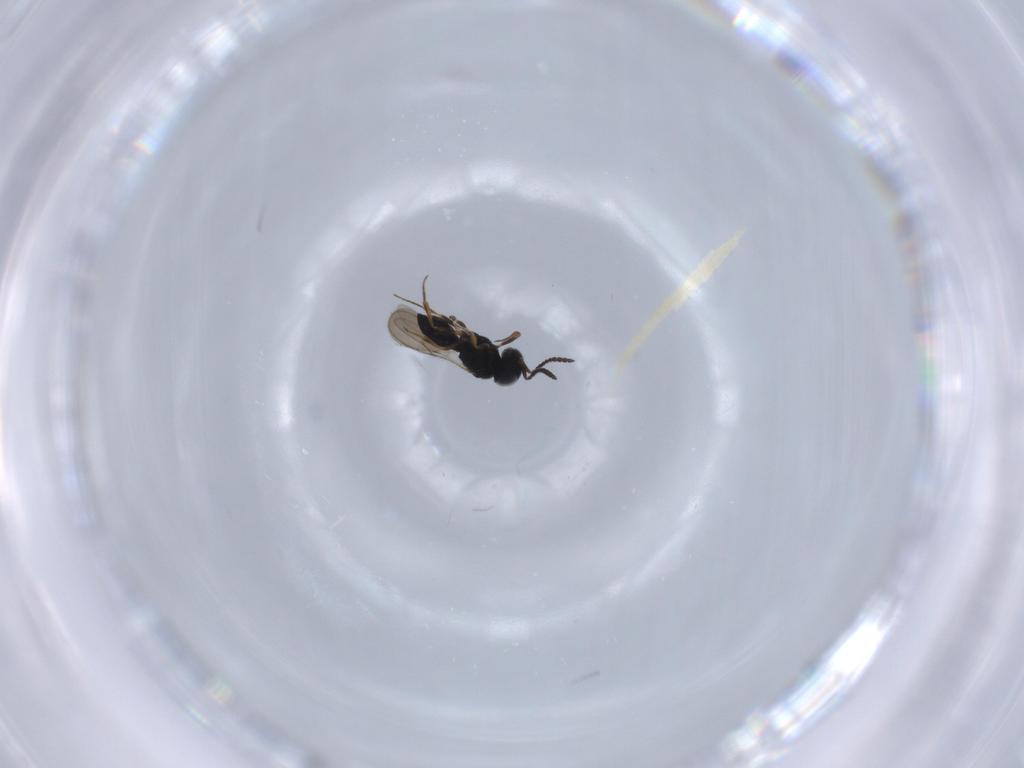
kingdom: Animalia
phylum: Arthropoda
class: Insecta
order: Hymenoptera
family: Scelionidae
